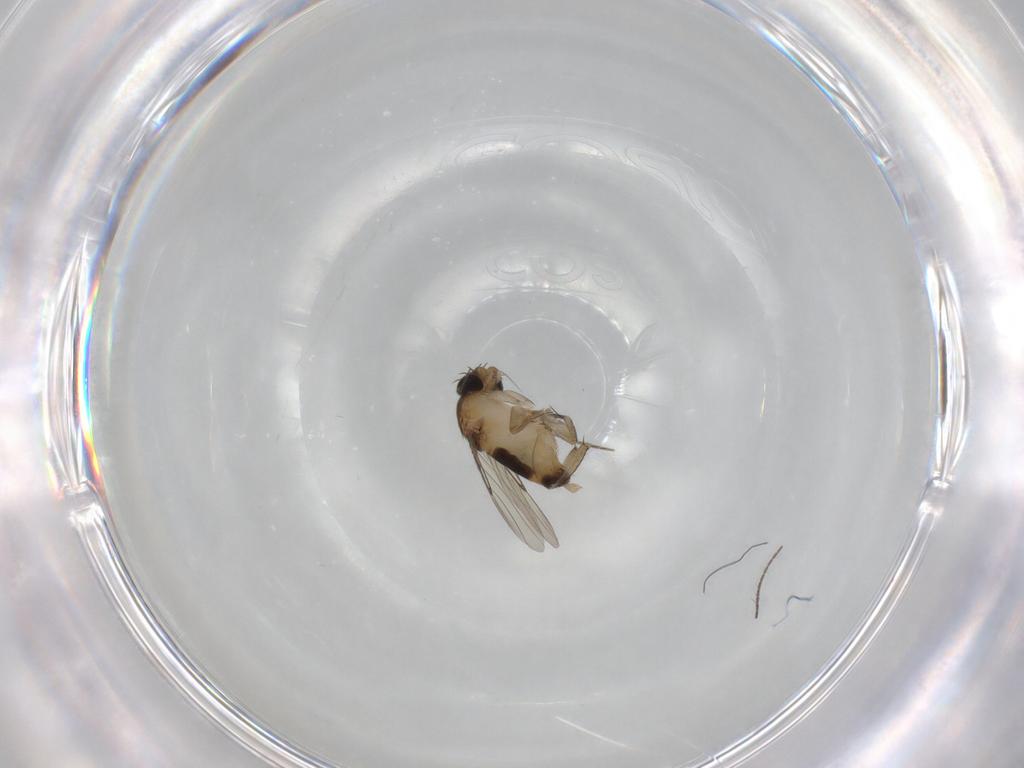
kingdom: Animalia
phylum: Arthropoda
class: Insecta
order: Diptera
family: Phoridae
